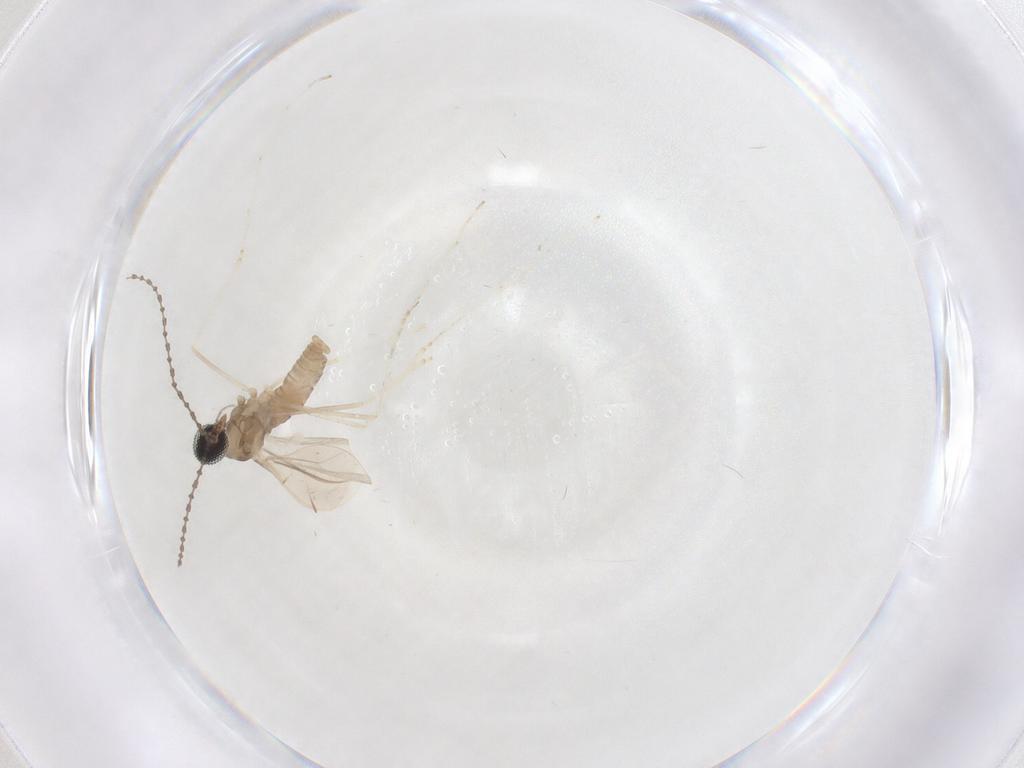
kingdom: Animalia
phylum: Arthropoda
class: Insecta
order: Diptera
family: Cecidomyiidae
